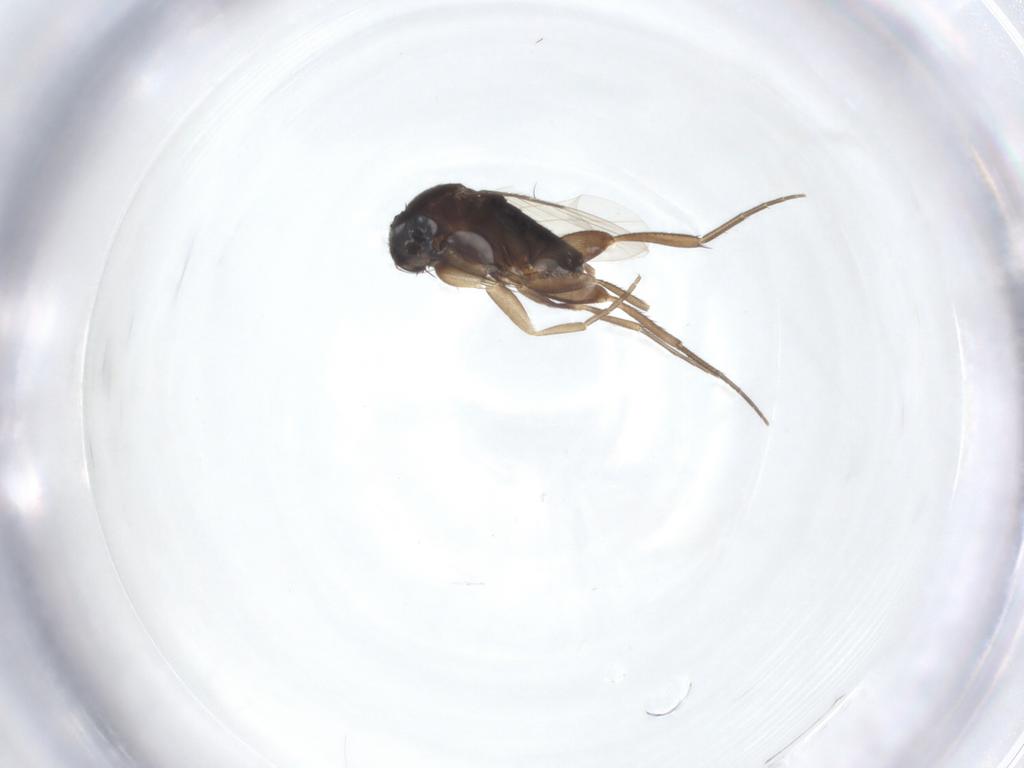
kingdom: Animalia
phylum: Arthropoda
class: Insecta
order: Diptera
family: Phoridae
